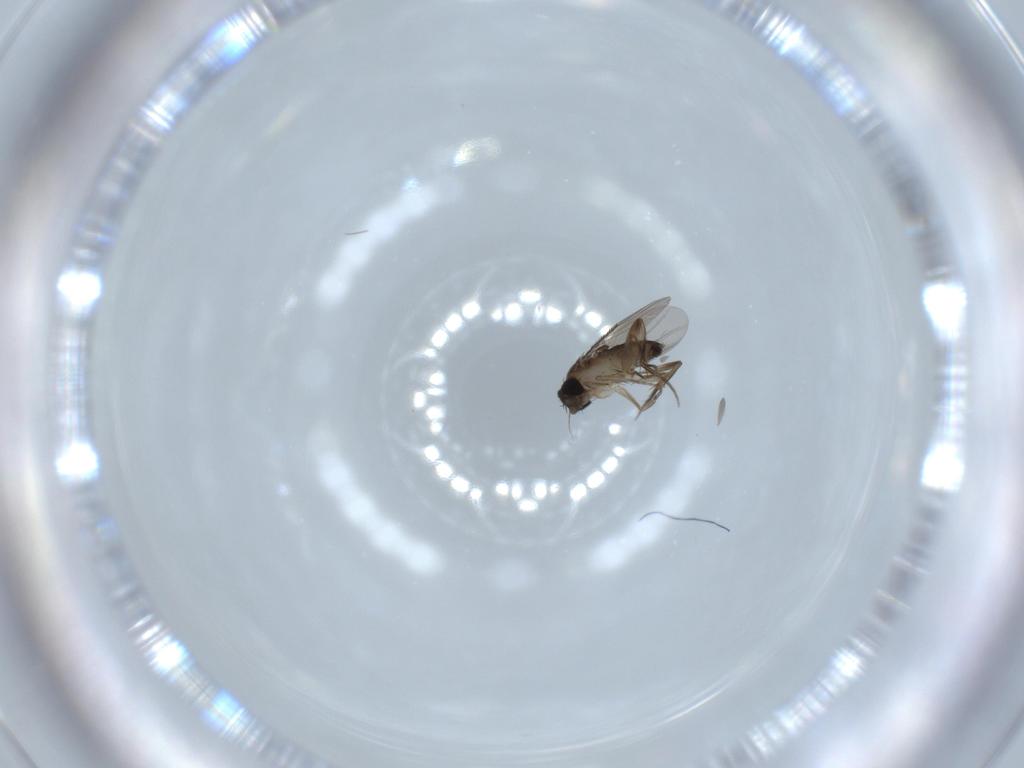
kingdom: Animalia
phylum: Arthropoda
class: Insecta
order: Diptera
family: Phoridae
